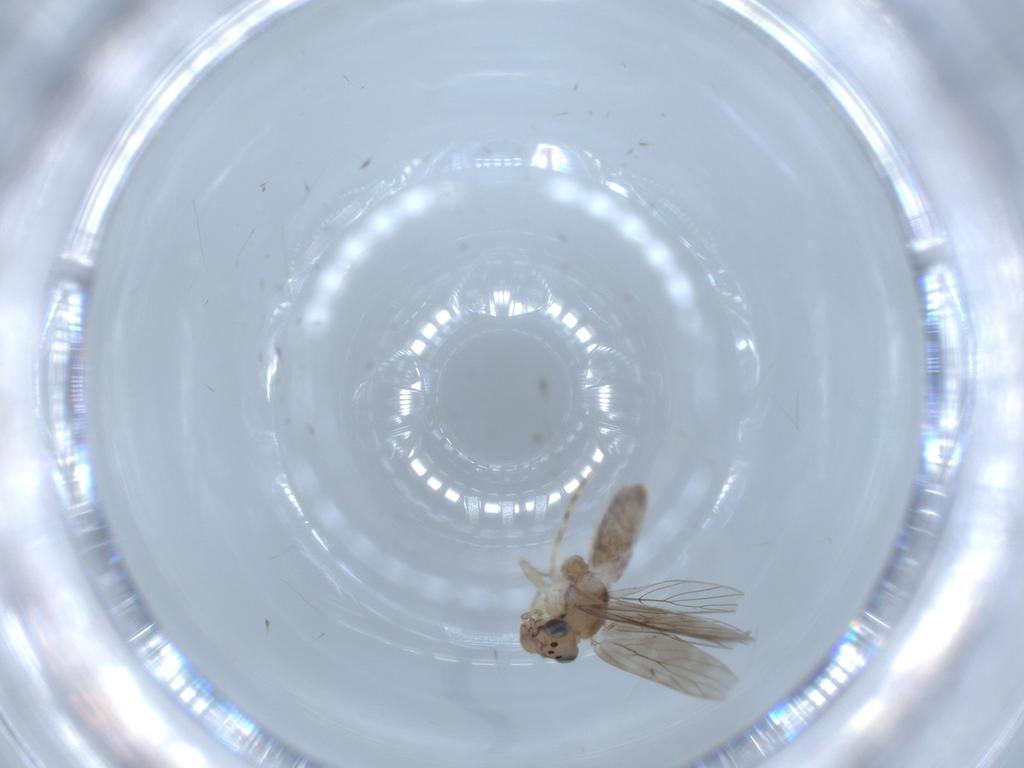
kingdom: Animalia
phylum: Arthropoda
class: Insecta
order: Psocodea
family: Lepidopsocidae
